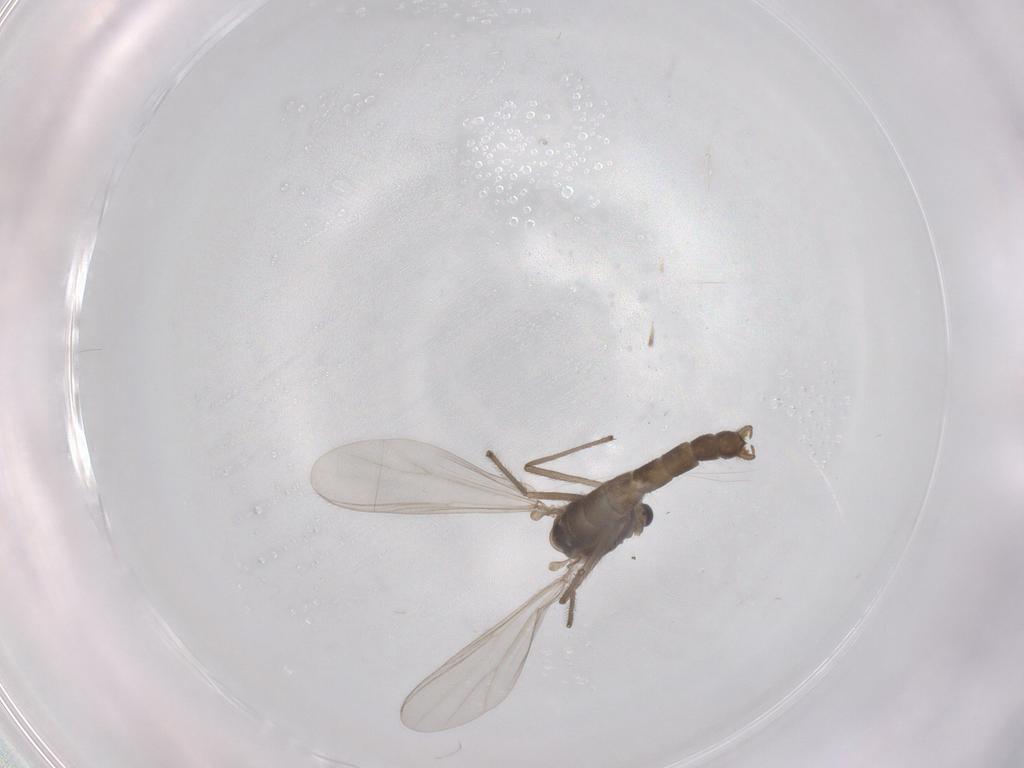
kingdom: Animalia
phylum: Arthropoda
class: Insecta
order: Diptera
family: Chironomidae
